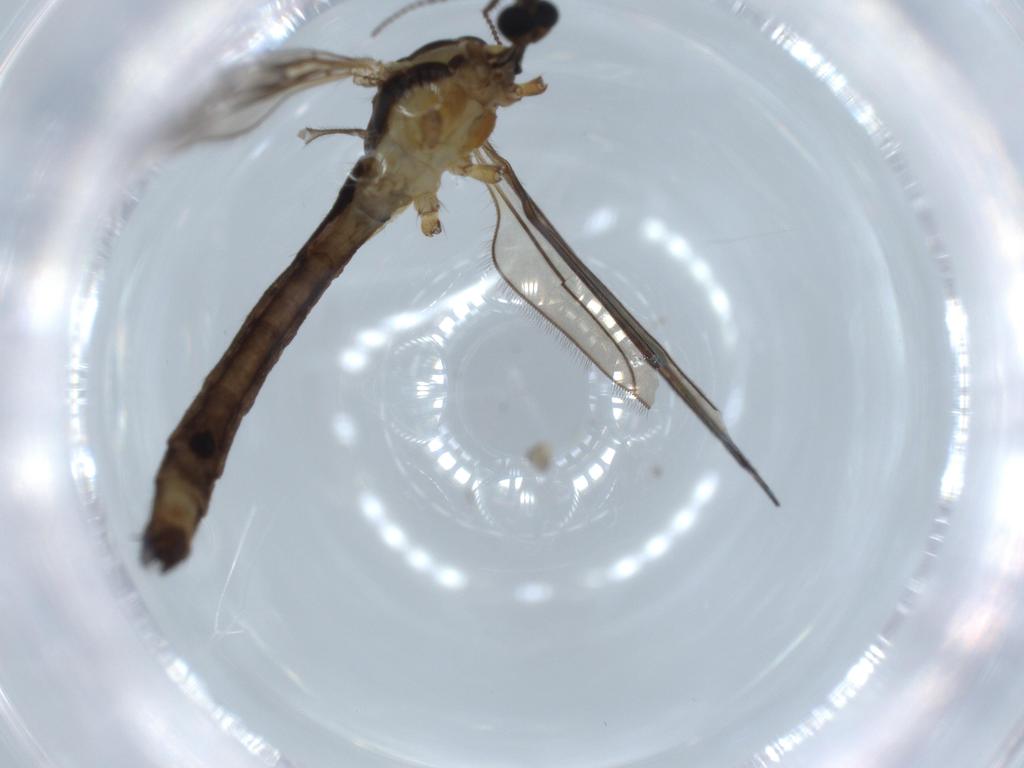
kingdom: Animalia
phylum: Arthropoda
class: Insecta
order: Diptera
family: Limoniidae
